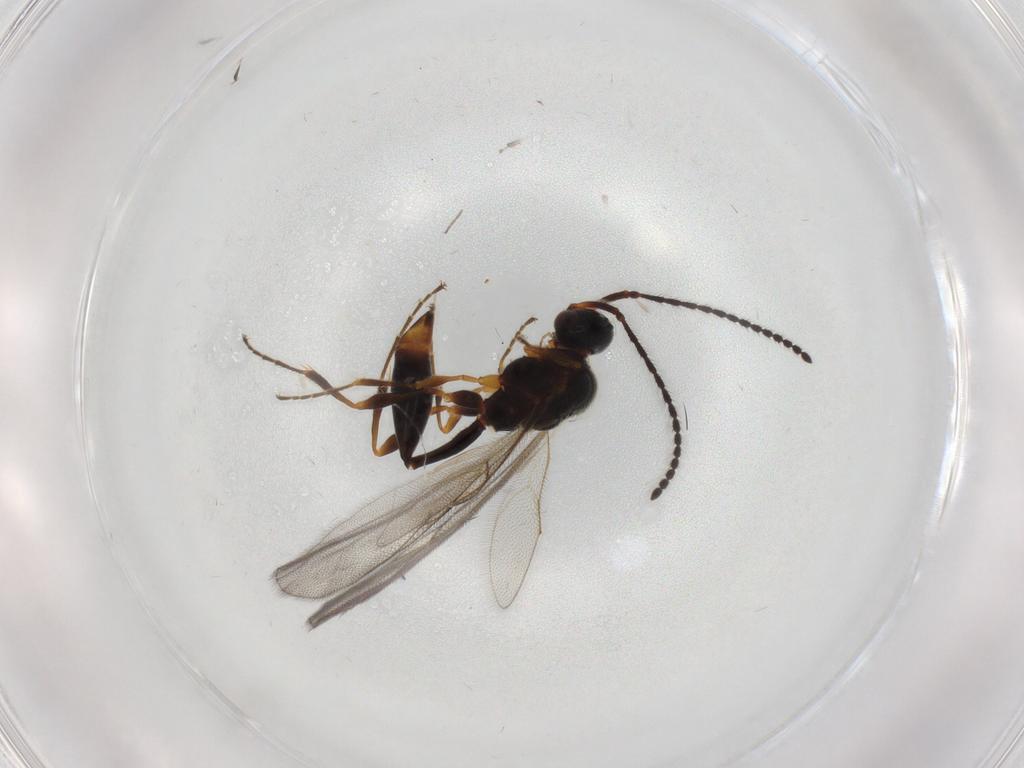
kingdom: Animalia
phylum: Arthropoda
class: Insecta
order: Hymenoptera
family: Diapriidae
